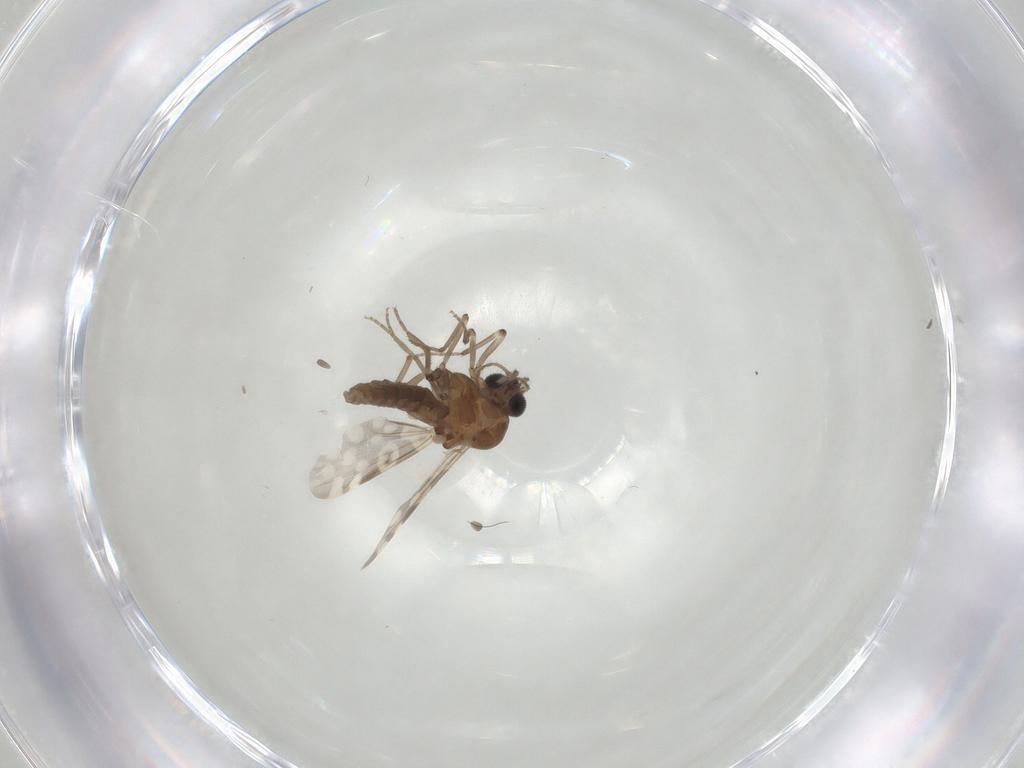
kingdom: Animalia
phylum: Arthropoda
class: Insecta
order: Diptera
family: Sciaridae
